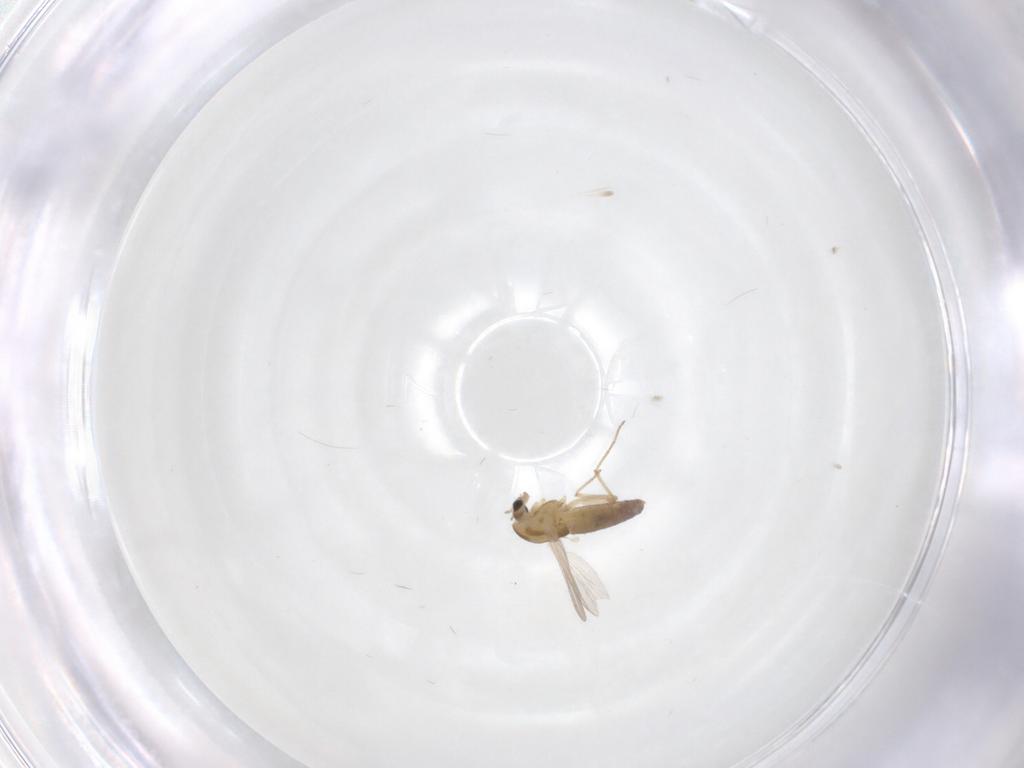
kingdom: Animalia
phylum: Arthropoda
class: Insecta
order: Diptera
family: Chironomidae
